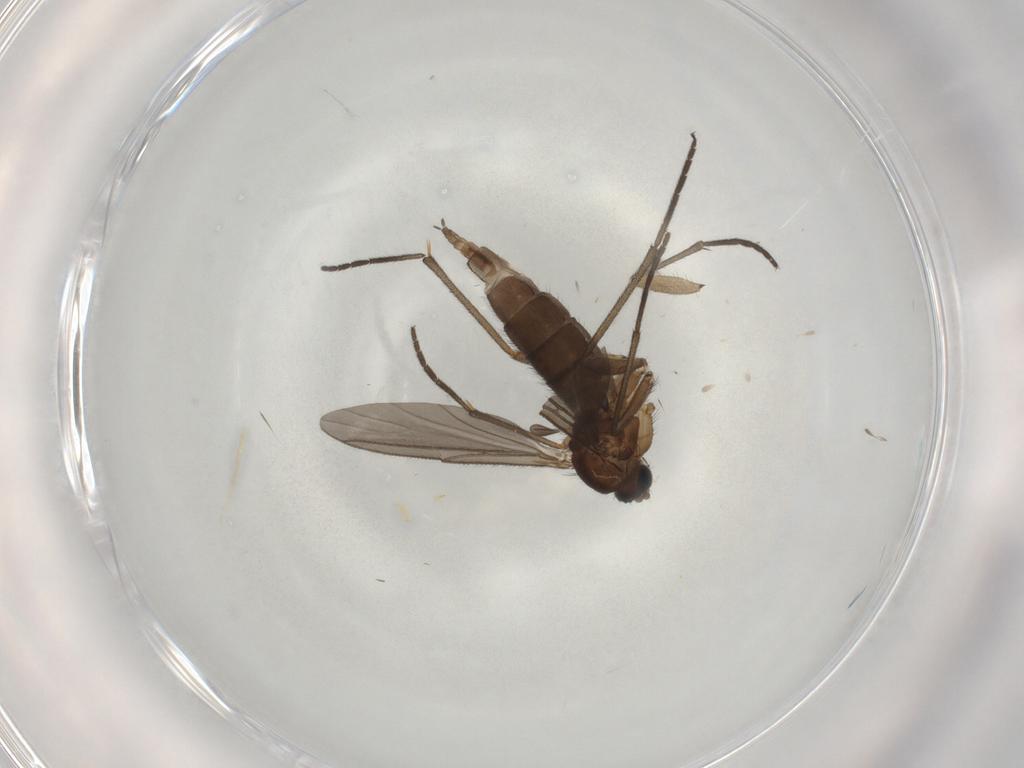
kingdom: Animalia
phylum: Arthropoda
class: Insecta
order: Diptera
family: Sciaridae
